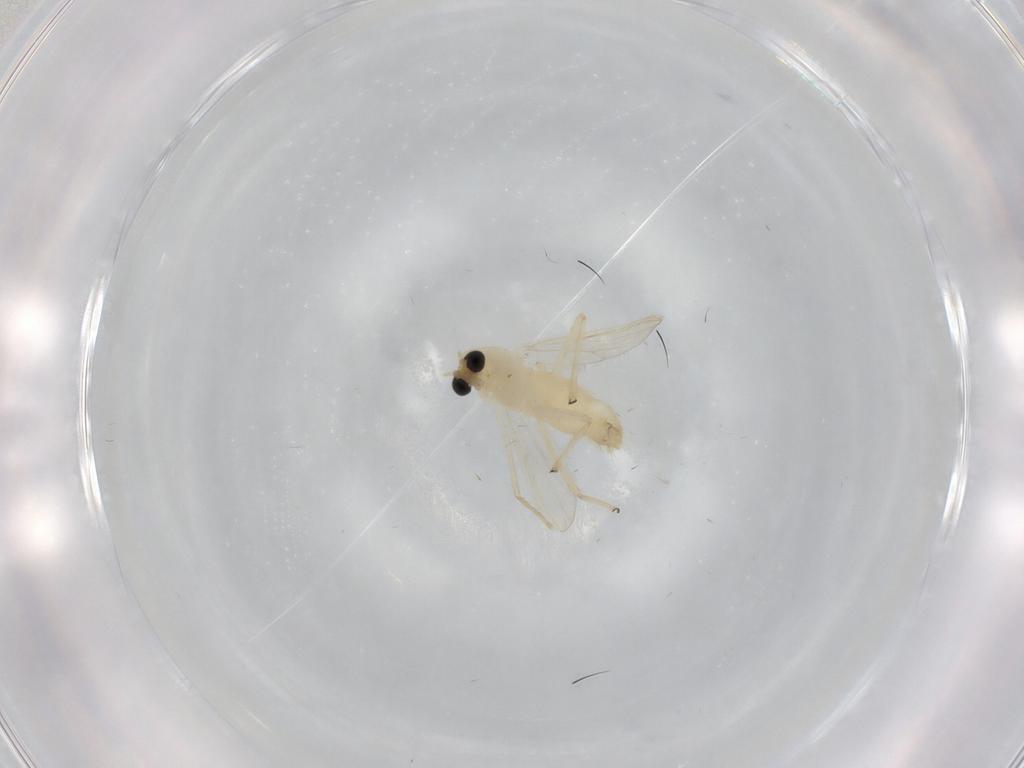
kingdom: Animalia
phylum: Arthropoda
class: Insecta
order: Diptera
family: Chironomidae
